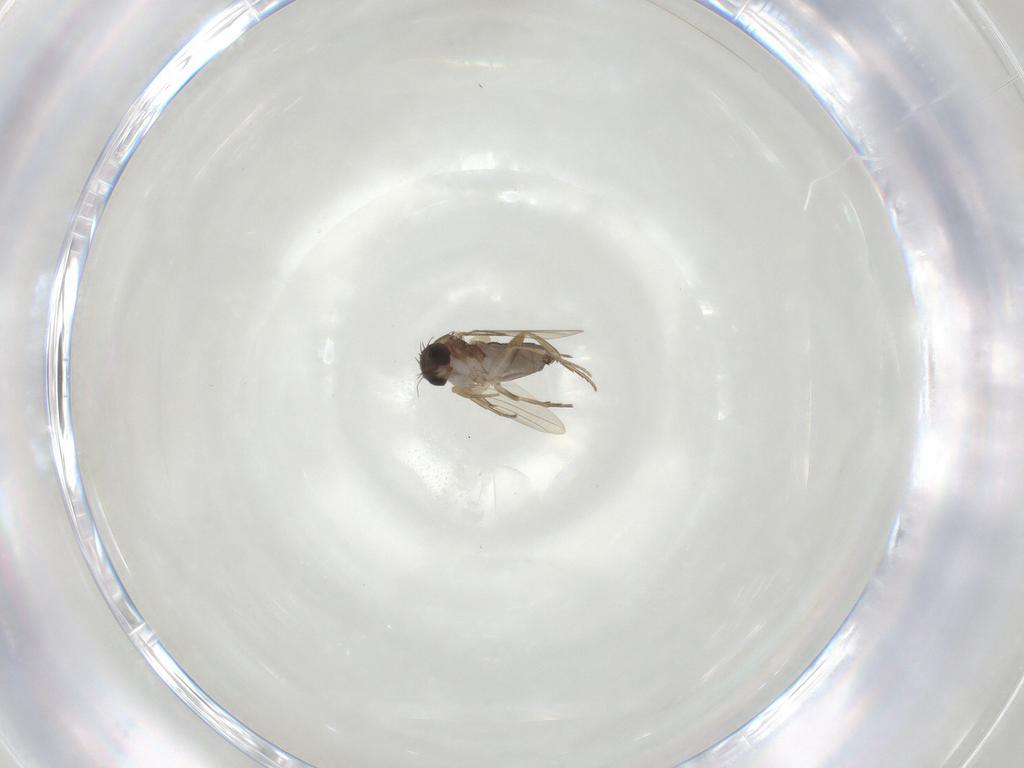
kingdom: Animalia
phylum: Arthropoda
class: Insecta
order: Diptera
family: Phoridae
